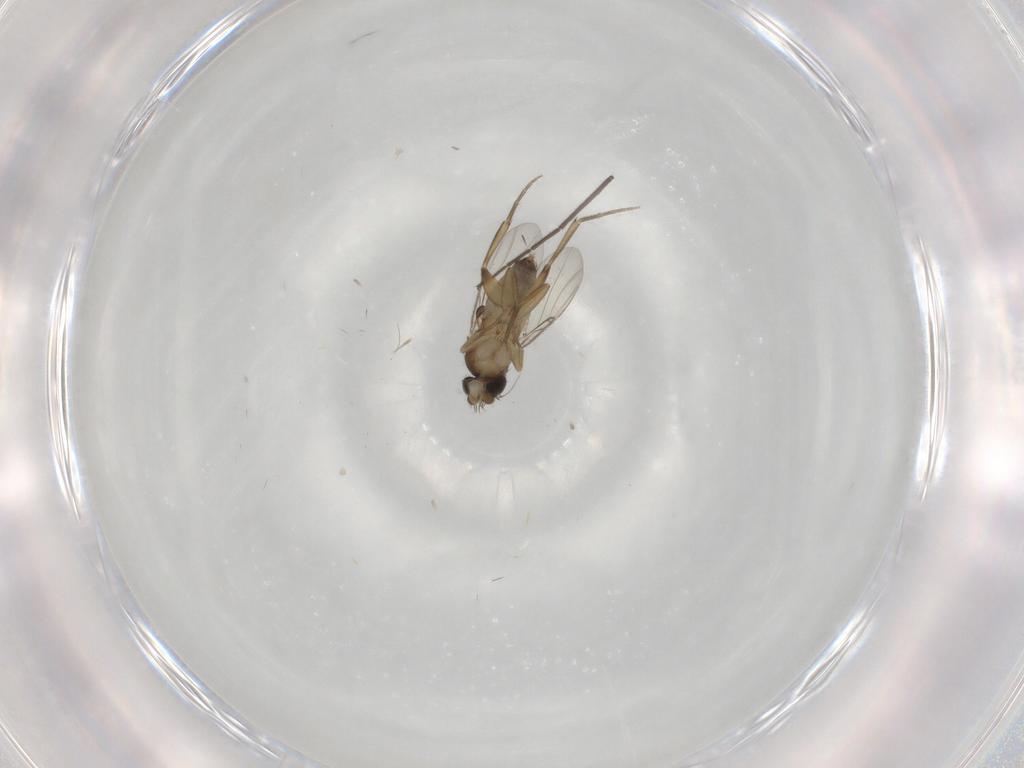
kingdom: Animalia
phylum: Arthropoda
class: Insecta
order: Diptera
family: Phoridae
